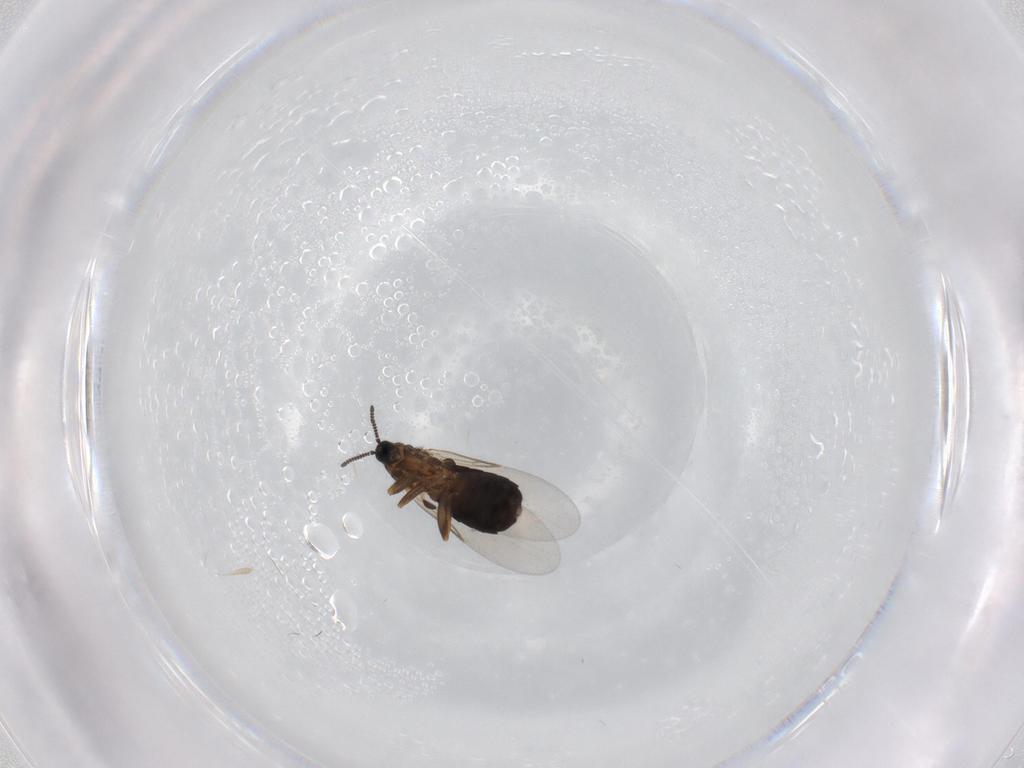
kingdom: Animalia
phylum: Arthropoda
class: Insecta
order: Diptera
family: Scatopsidae
